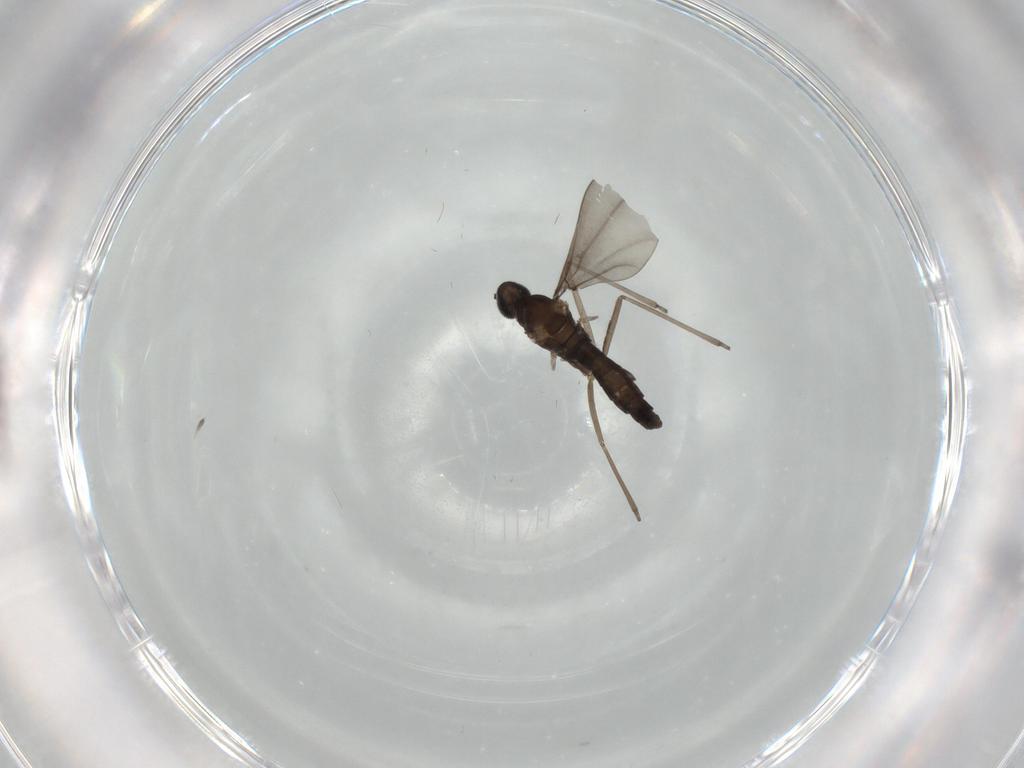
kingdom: Animalia
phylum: Arthropoda
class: Insecta
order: Diptera
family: Cecidomyiidae
